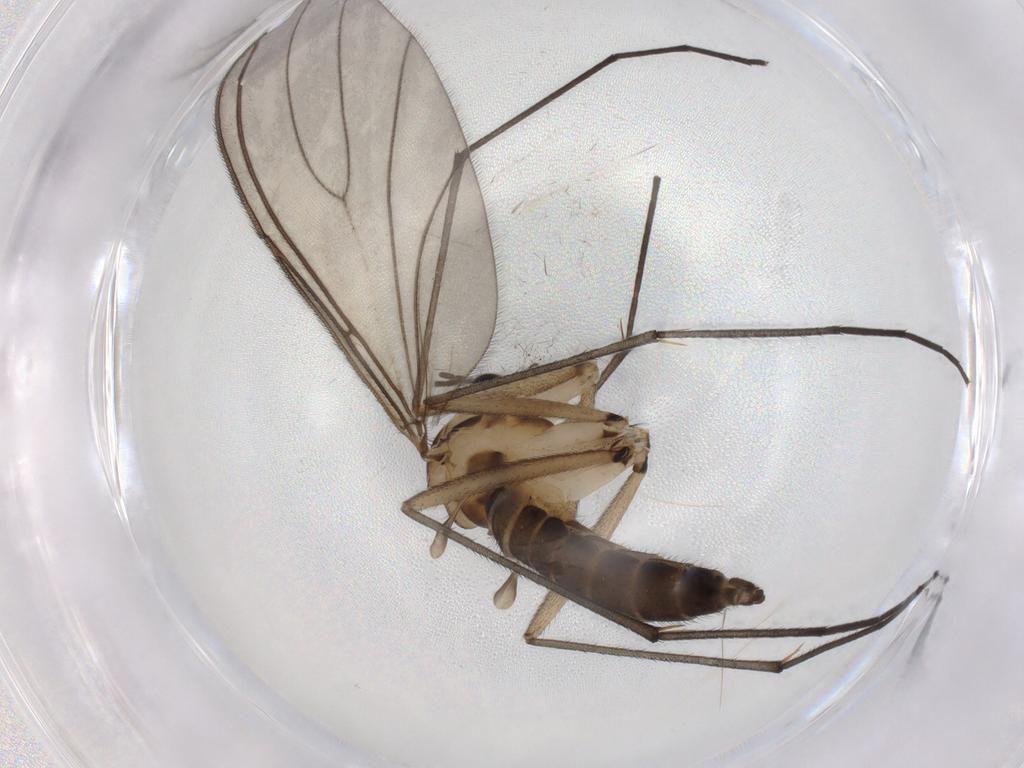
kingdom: Animalia
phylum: Arthropoda
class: Insecta
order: Diptera
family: Sciaridae
